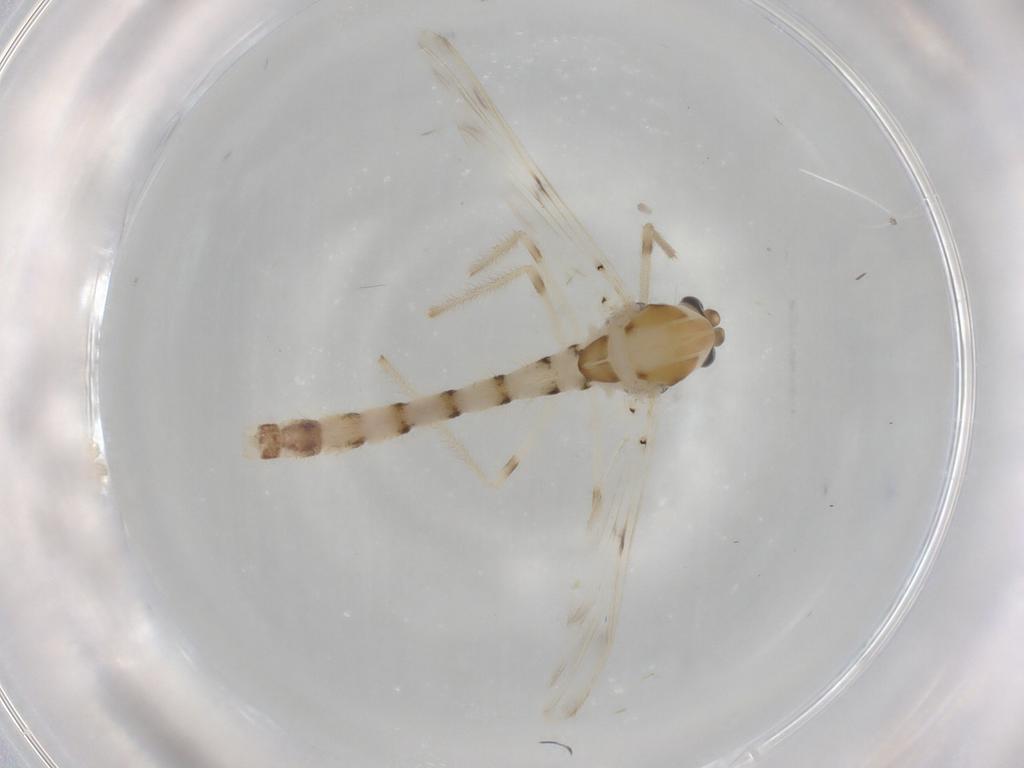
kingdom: Animalia
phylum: Arthropoda
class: Insecta
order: Diptera
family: Chironomidae
